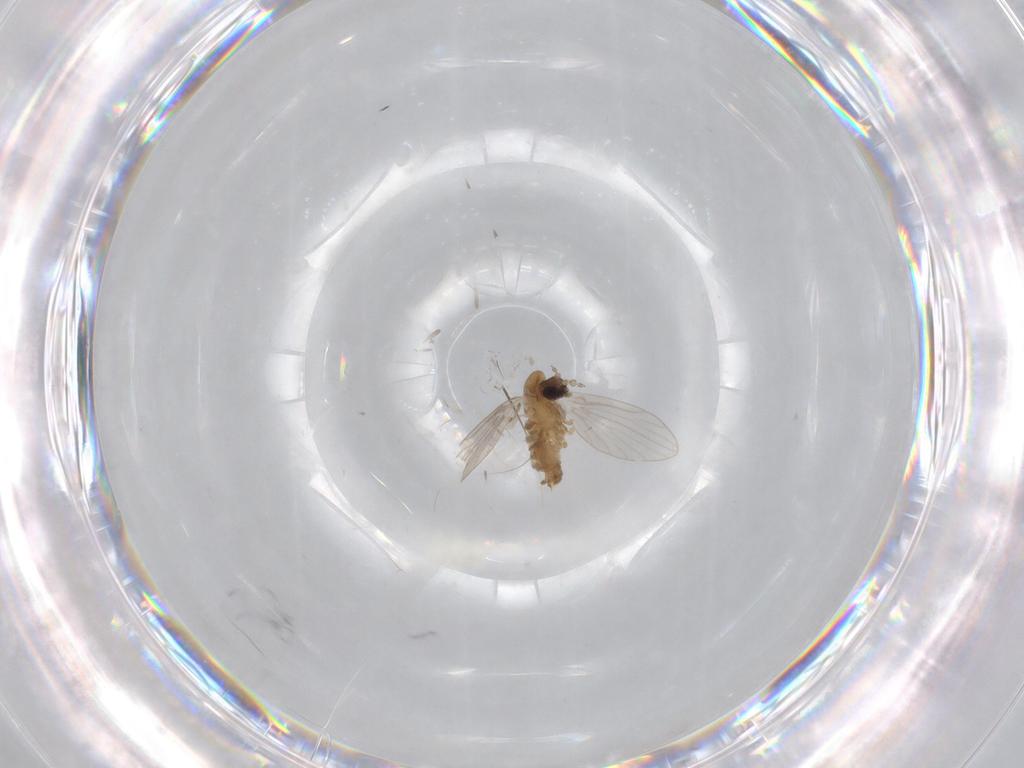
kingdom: Animalia
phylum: Arthropoda
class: Insecta
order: Diptera
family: Psychodidae
